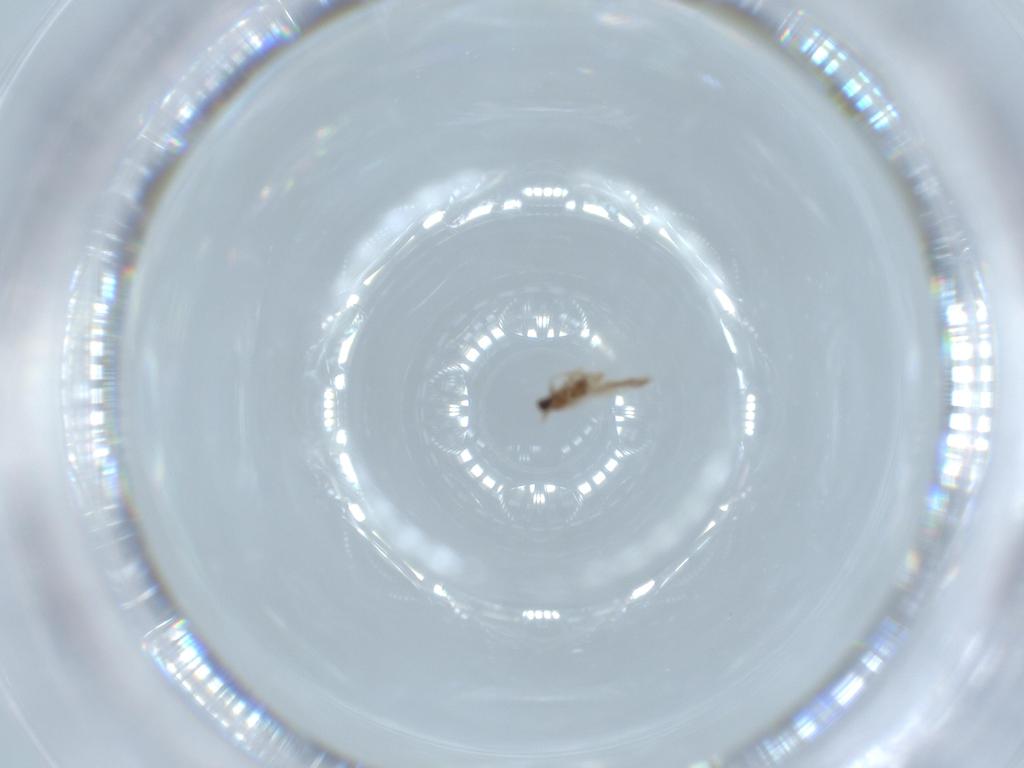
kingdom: Animalia
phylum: Arthropoda
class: Insecta
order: Diptera
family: Cecidomyiidae
